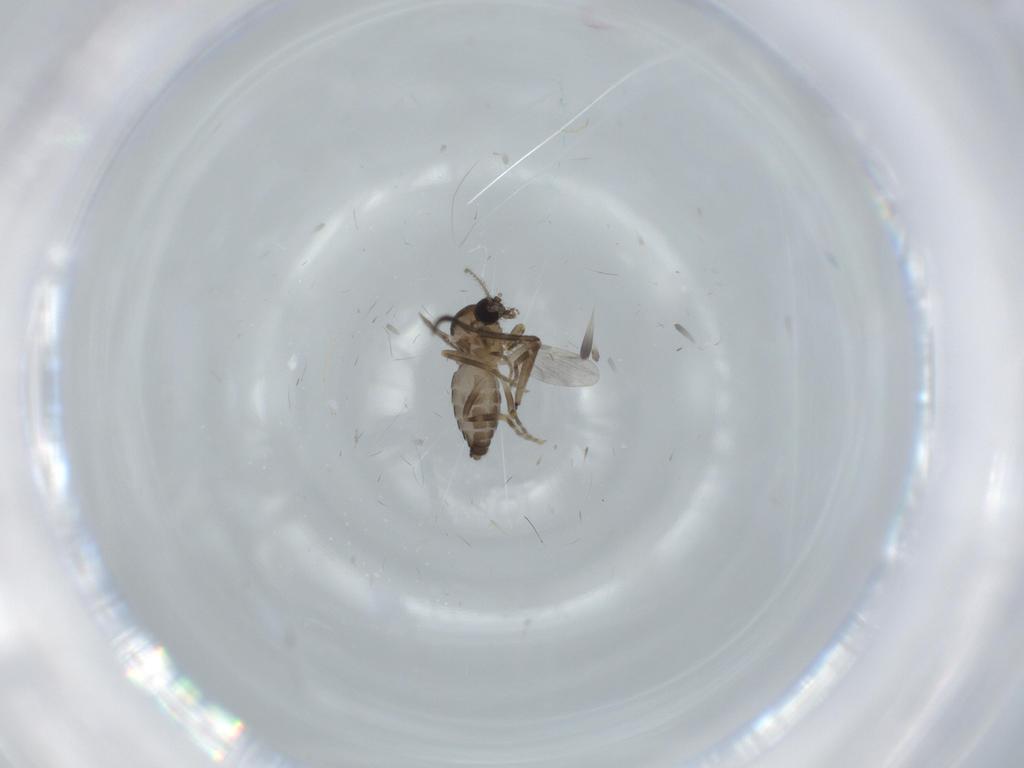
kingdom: Animalia
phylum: Arthropoda
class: Insecta
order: Diptera
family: Ceratopogonidae
